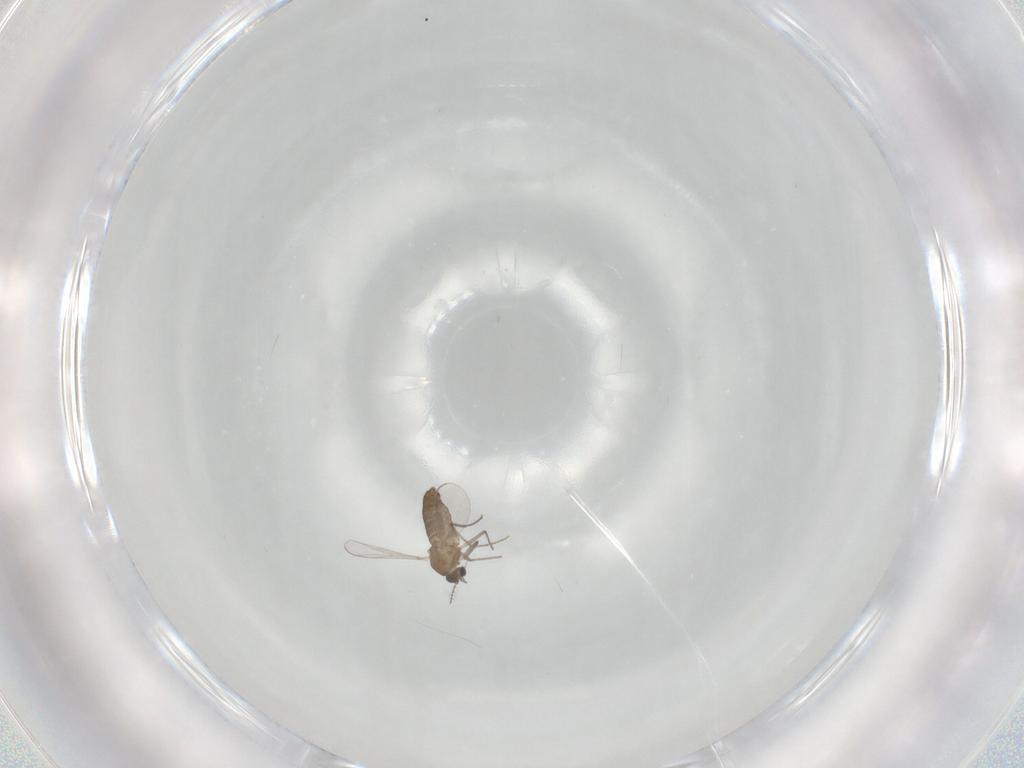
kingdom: Animalia
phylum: Arthropoda
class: Insecta
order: Diptera
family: Chironomidae
